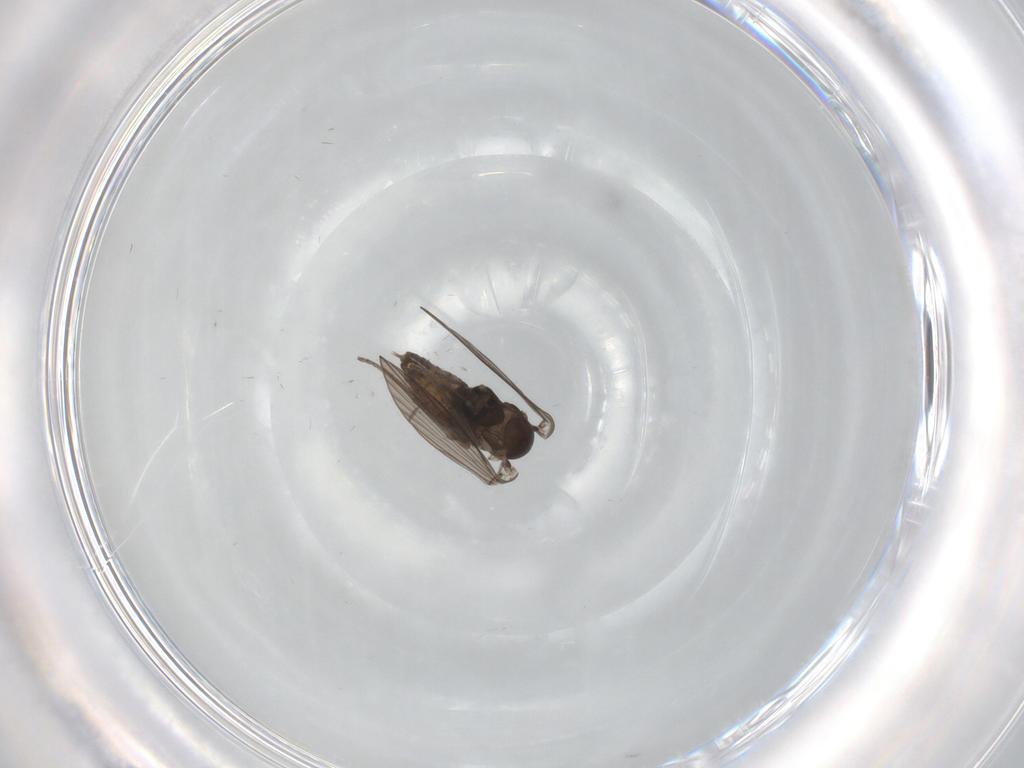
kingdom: Animalia
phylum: Arthropoda
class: Insecta
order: Diptera
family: Psychodidae
